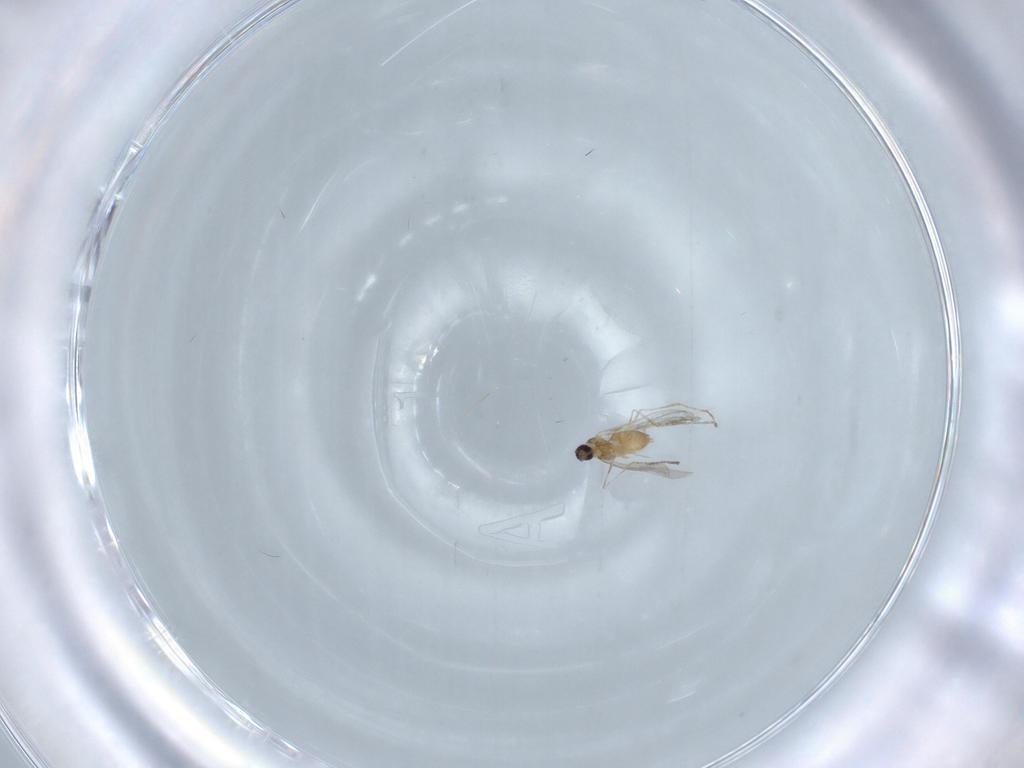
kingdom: Animalia
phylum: Arthropoda
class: Insecta
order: Diptera
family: Cecidomyiidae
